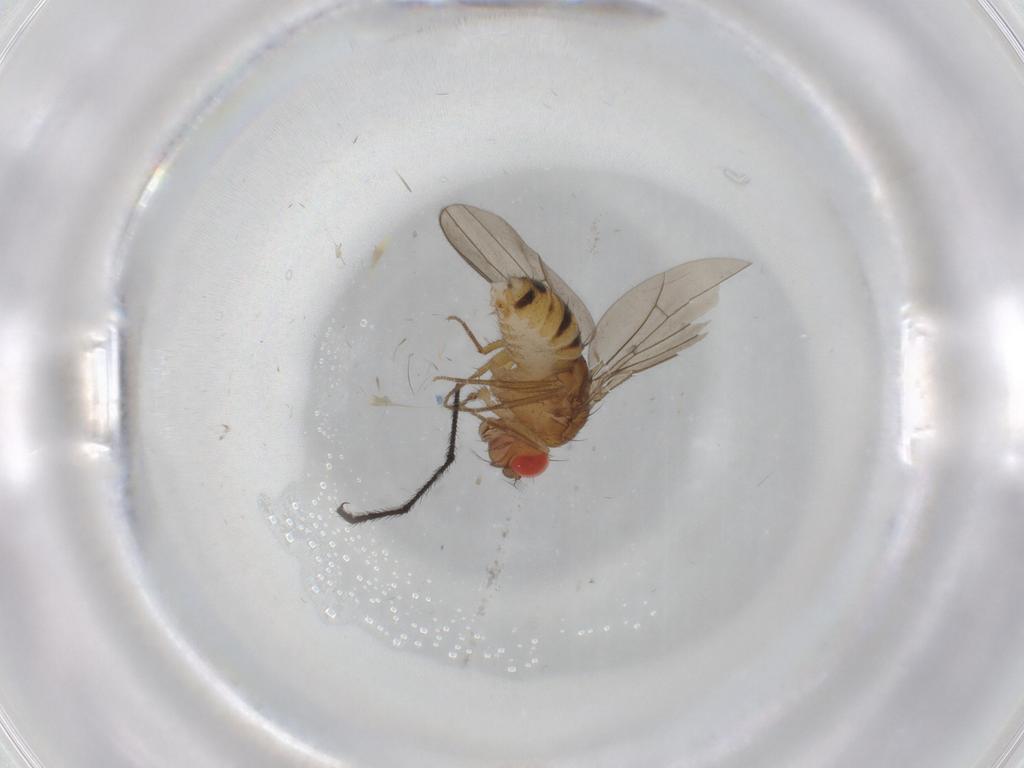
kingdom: Animalia
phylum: Arthropoda
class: Insecta
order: Diptera
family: Drosophilidae
